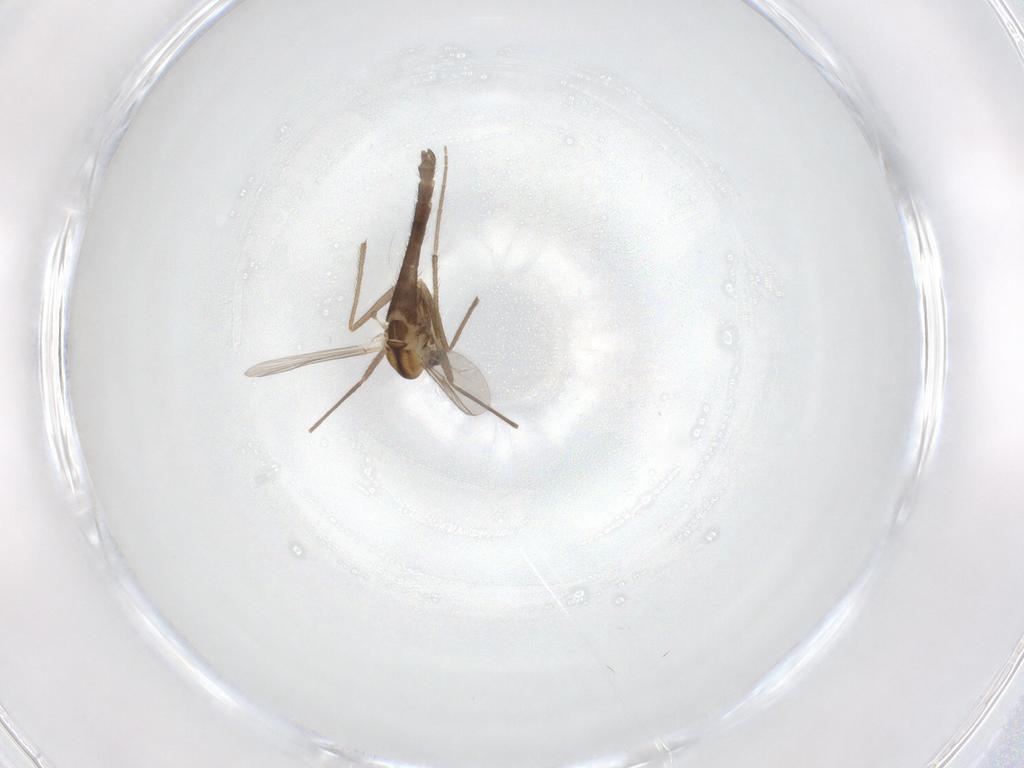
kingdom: Animalia
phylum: Arthropoda
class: Insecta
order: Diptera
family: Chironomidae
